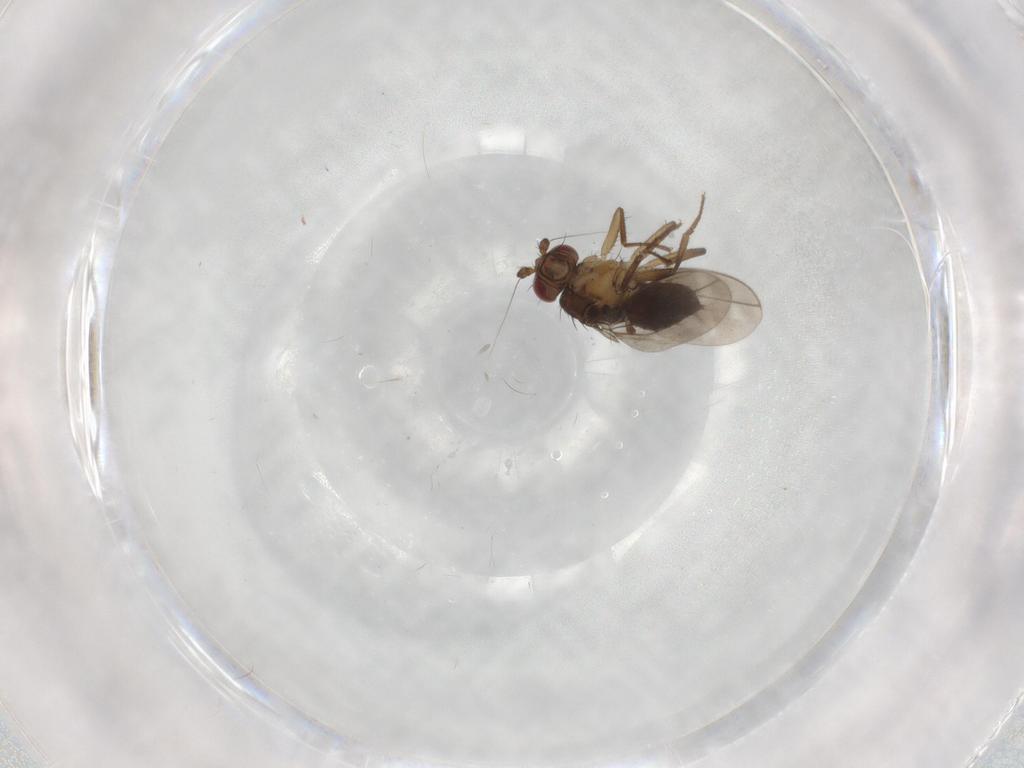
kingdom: Animalia
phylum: Arthropoda
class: Insecta
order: Diptera
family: Sphaeroceridae
